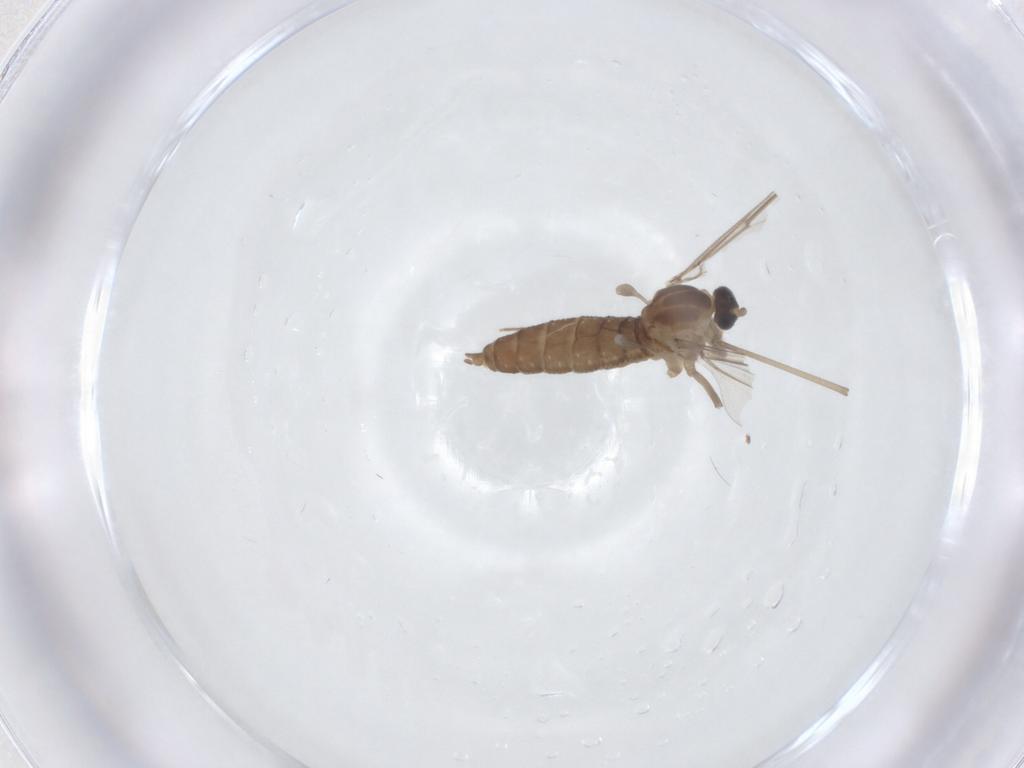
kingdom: Animalia
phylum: Arthropoda
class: Insecta
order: Diptera
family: Cecidomyiidae
